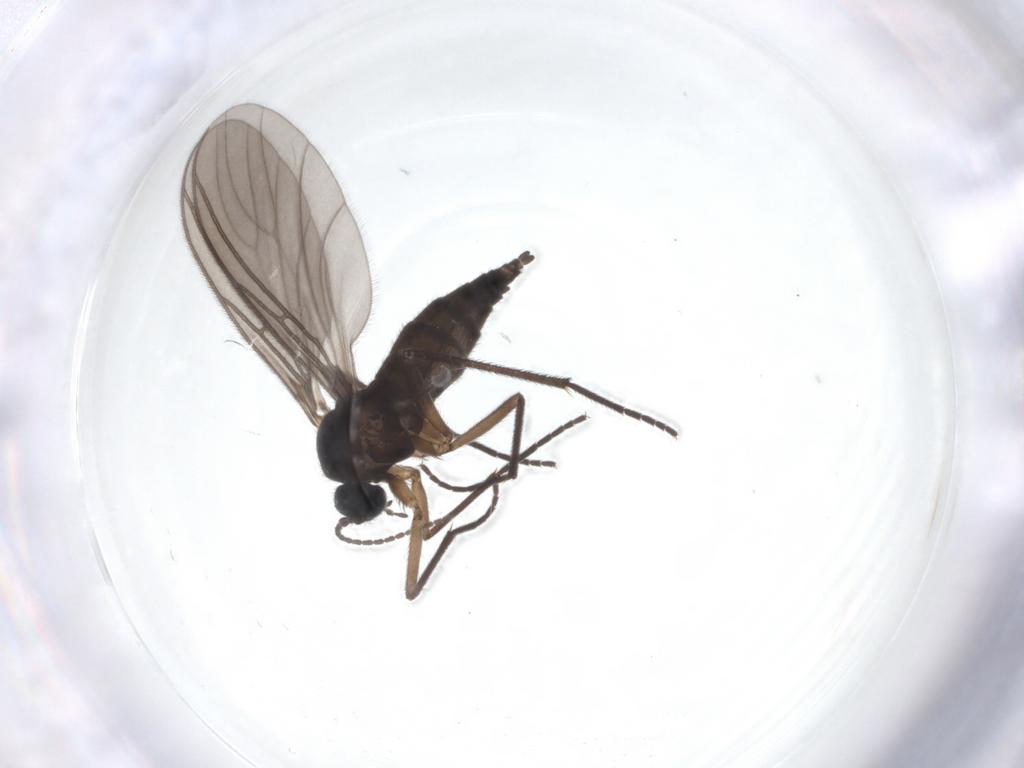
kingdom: Animalia
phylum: Arthropoda
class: Insecta
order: Diptera
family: Sciaridae
